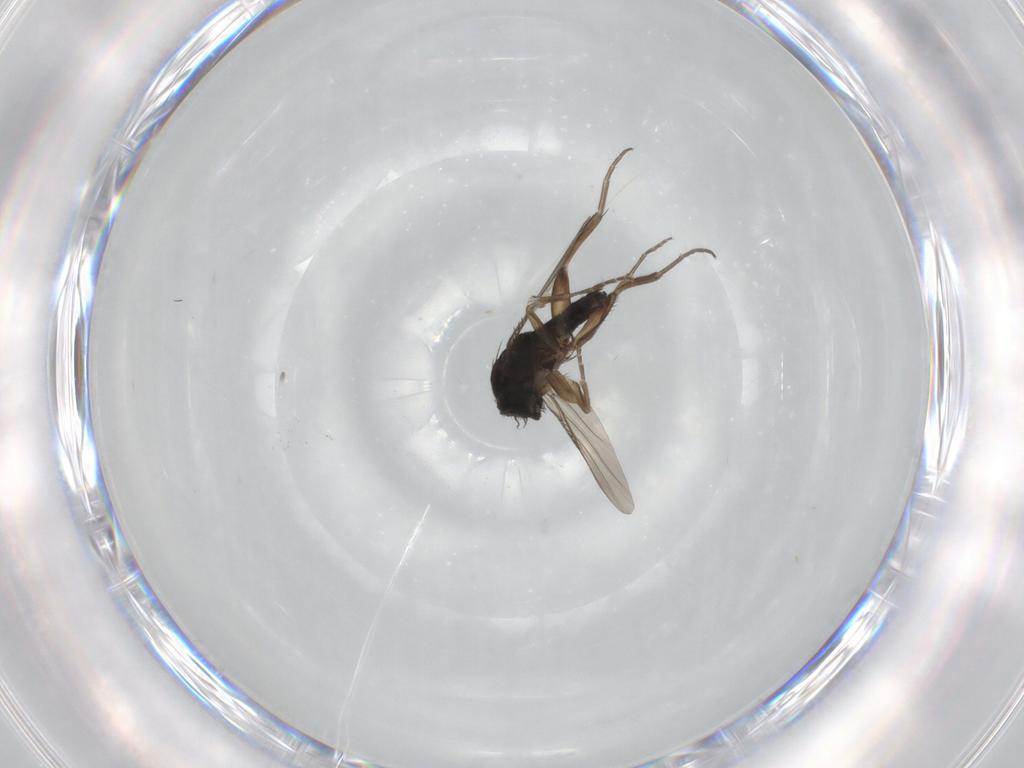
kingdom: Animalia
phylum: Arthropoda
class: Insecta
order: Diptera
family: Phoridae
